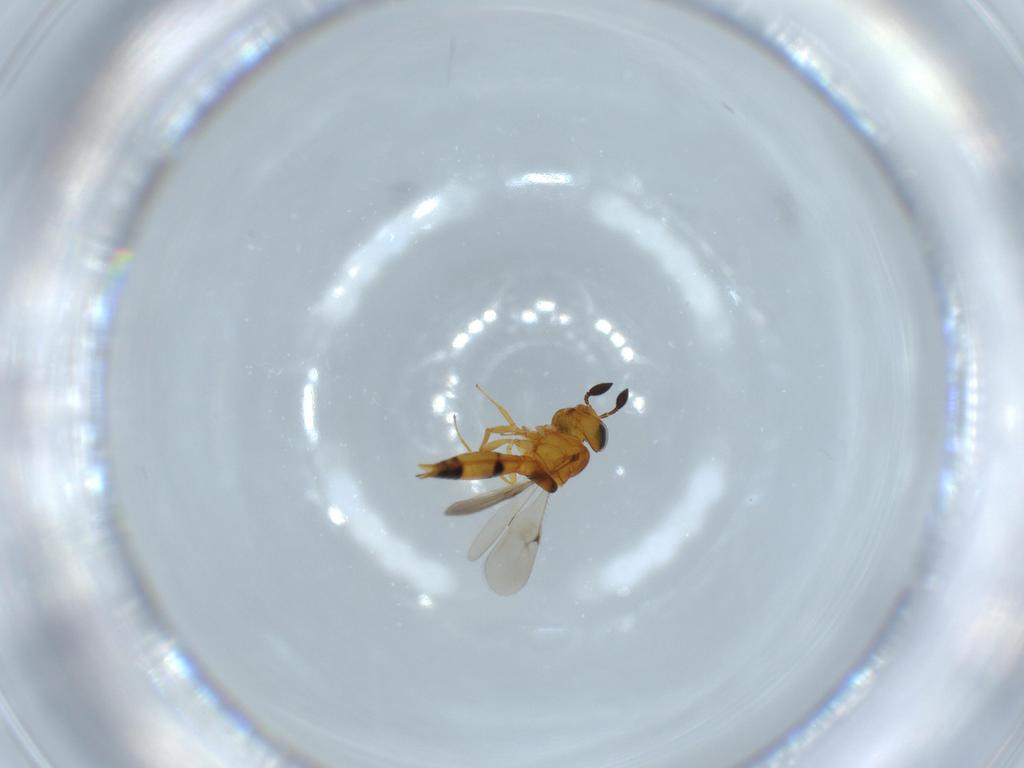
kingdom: Animalia
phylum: Arthropoda
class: Insecta
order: Hymenoptera
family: Scelionidae
